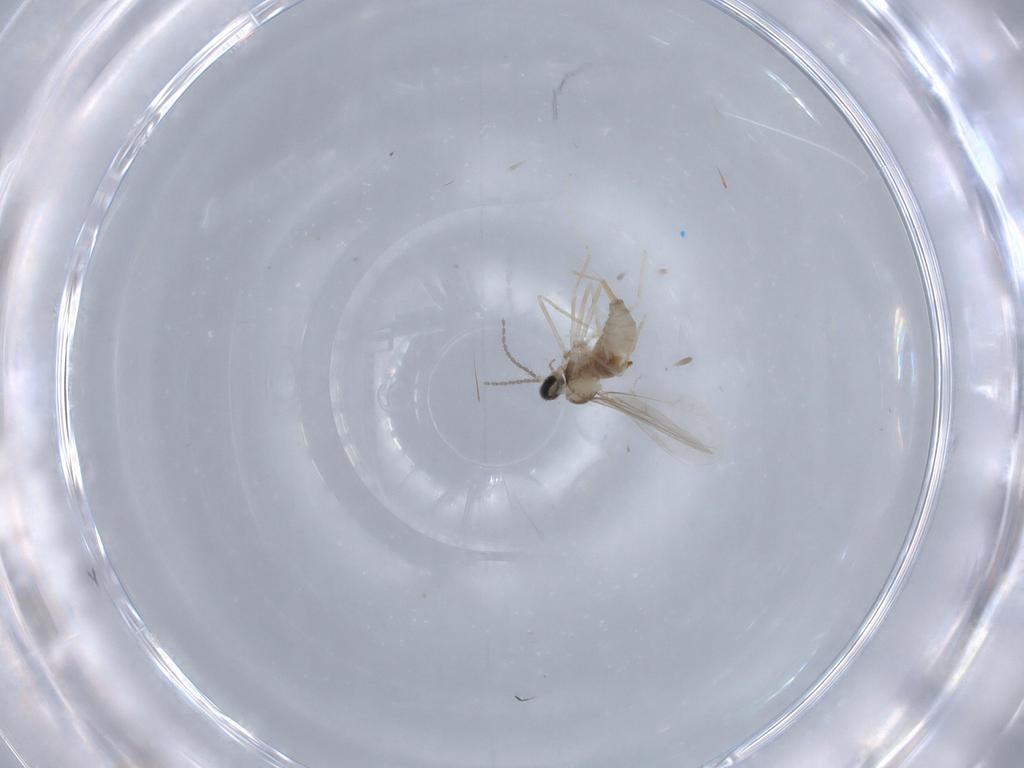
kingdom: Animalia
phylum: Arthropoda
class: Insecta
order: Diptera
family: Cecidomyiidae
